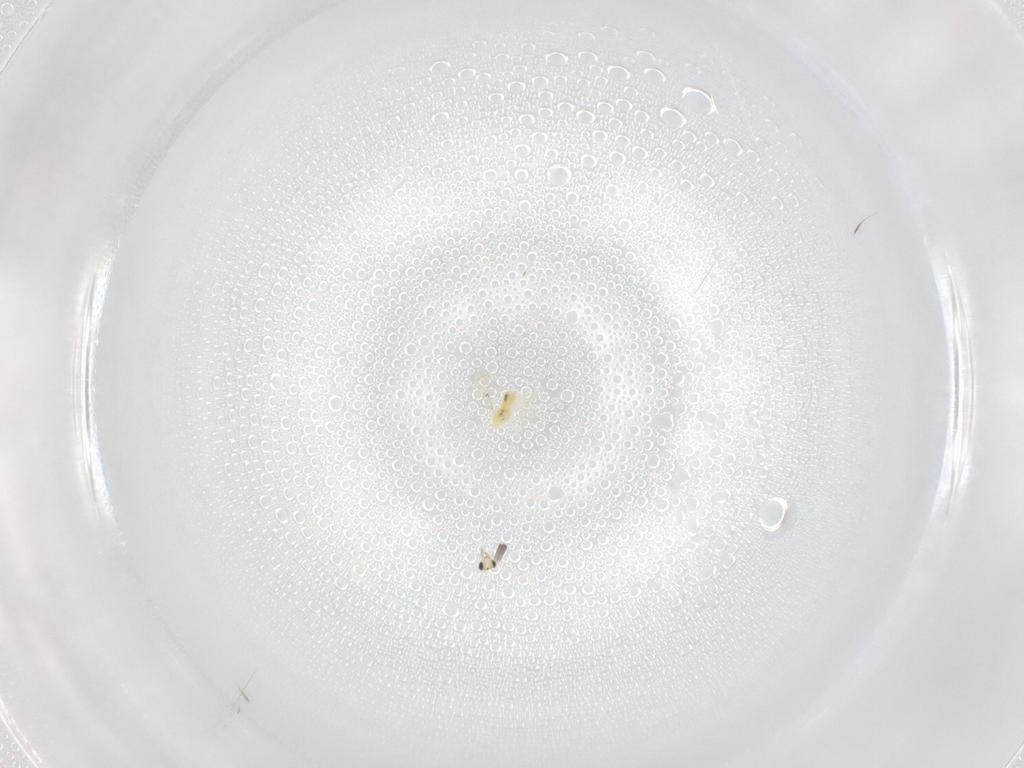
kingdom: Animalia
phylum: Arthropoda
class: Insecta
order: Hymenoptera
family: Trichogrammatidae
